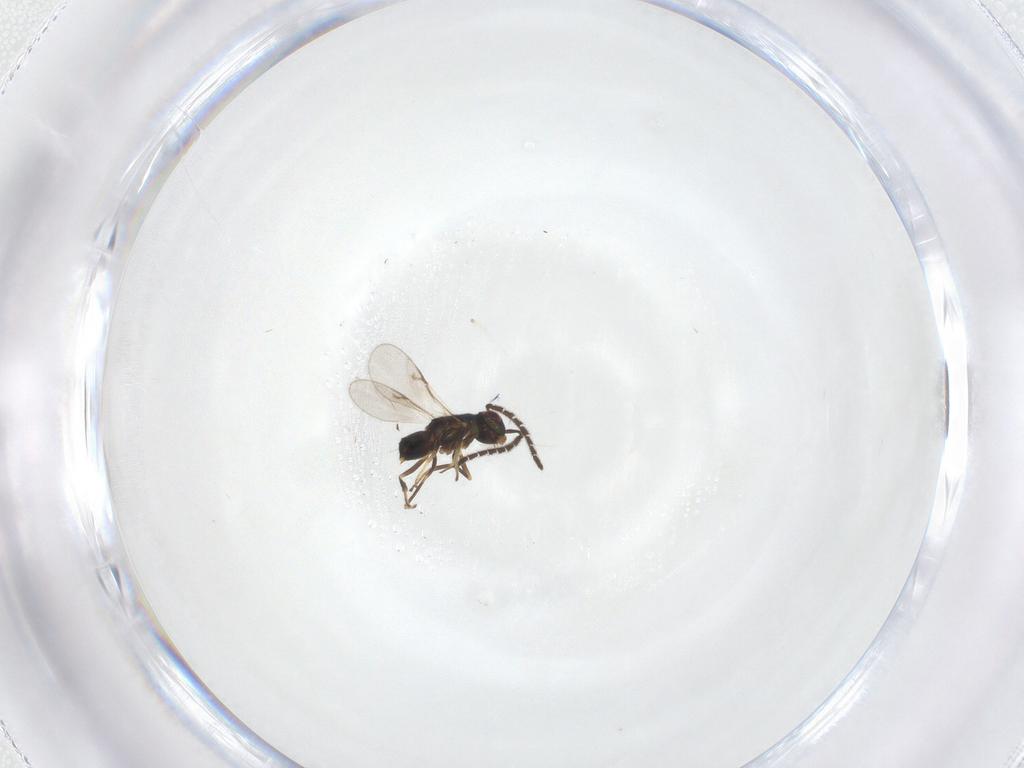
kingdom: Animalia
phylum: Arthropoda
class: Insecta
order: Hymenoptera
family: Encyrtidae
